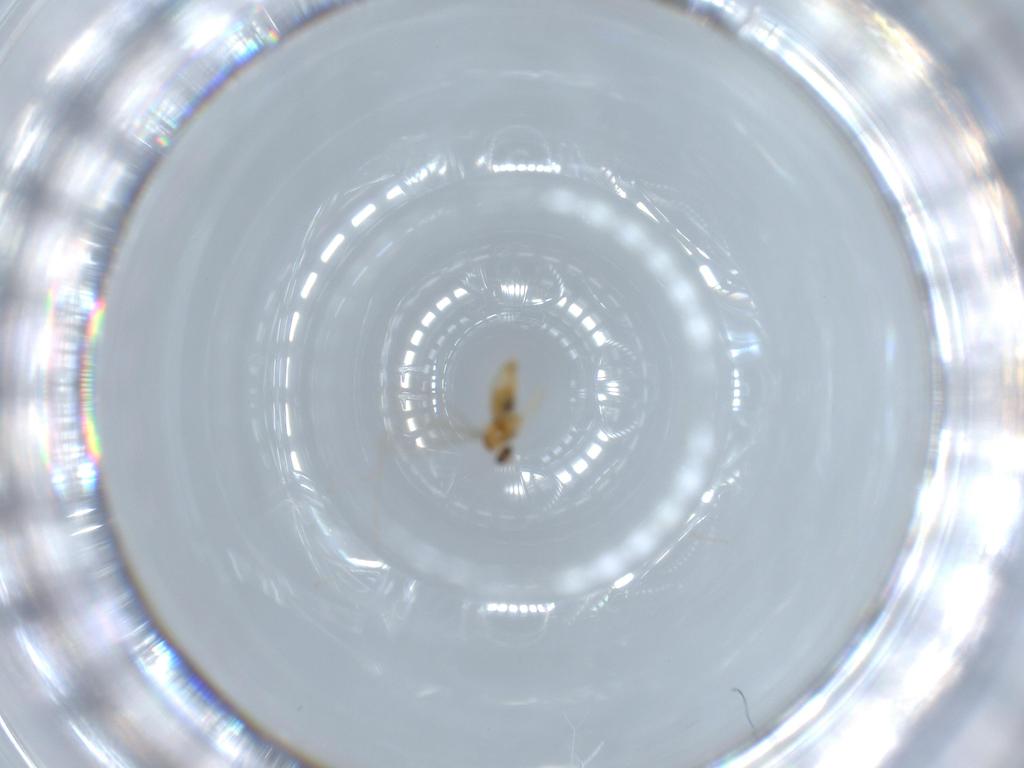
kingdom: Animalia
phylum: Arthropoda
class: Insecta
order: Diptera
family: Cecidomyiidae
